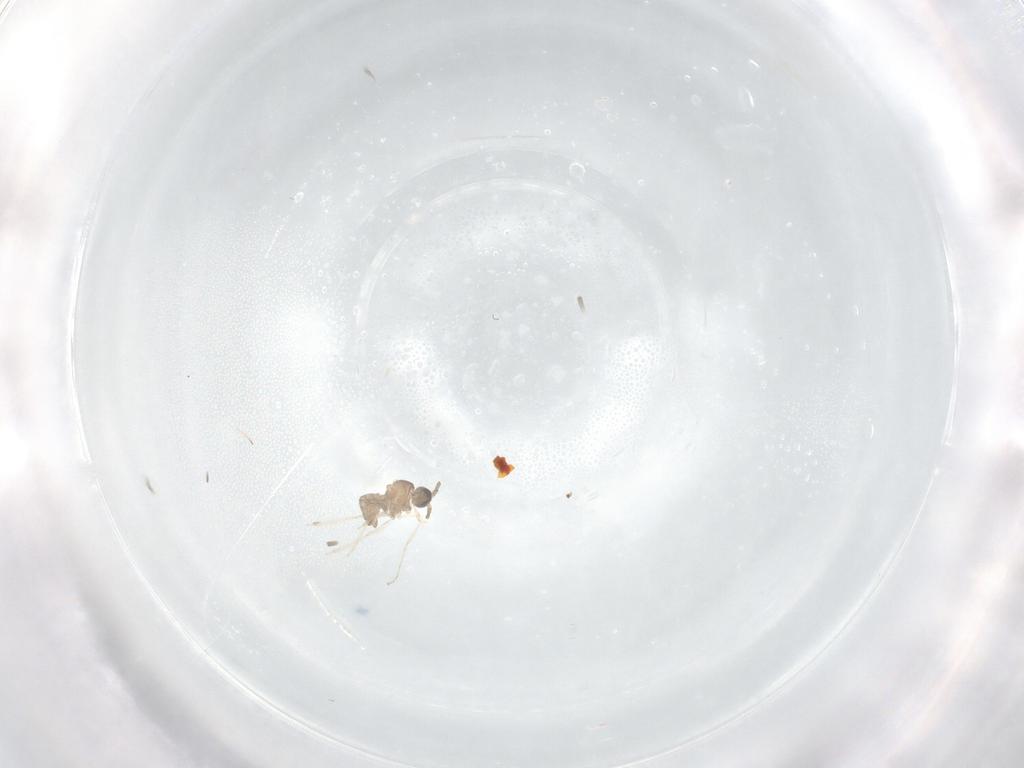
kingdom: Animalia
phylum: Arthropoda
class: Insecta
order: Diptera
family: Cecidomyiidae
